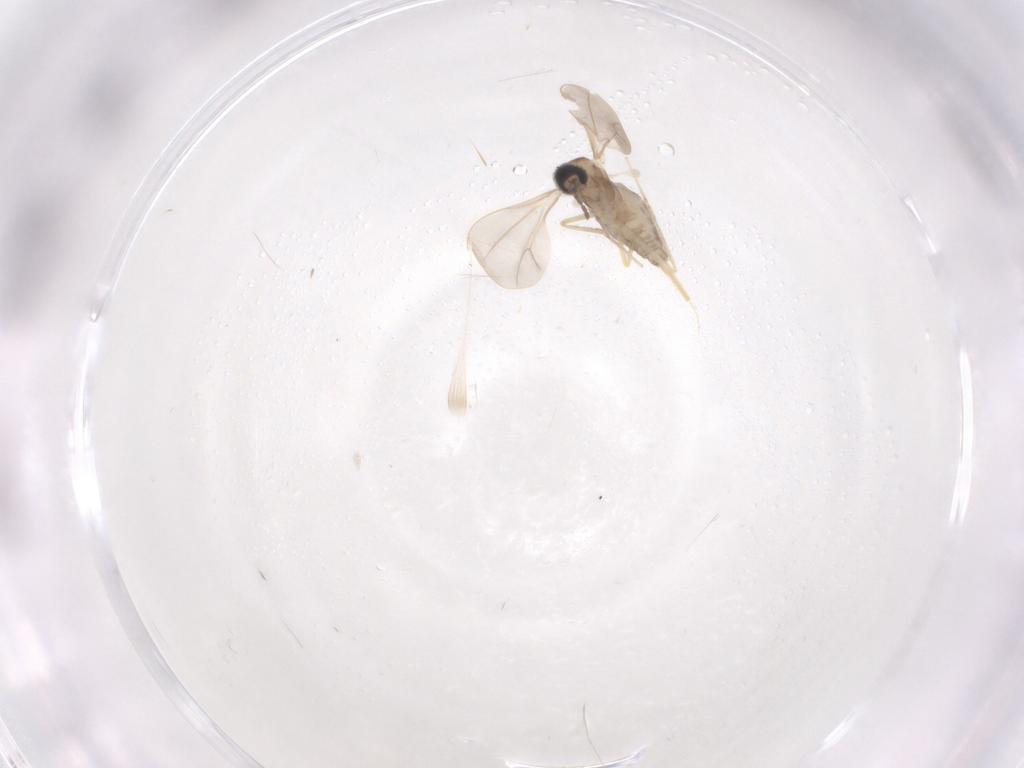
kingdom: Animalia
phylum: Arthropoda
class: Insecta
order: Diptera
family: Cecidomyiidae
